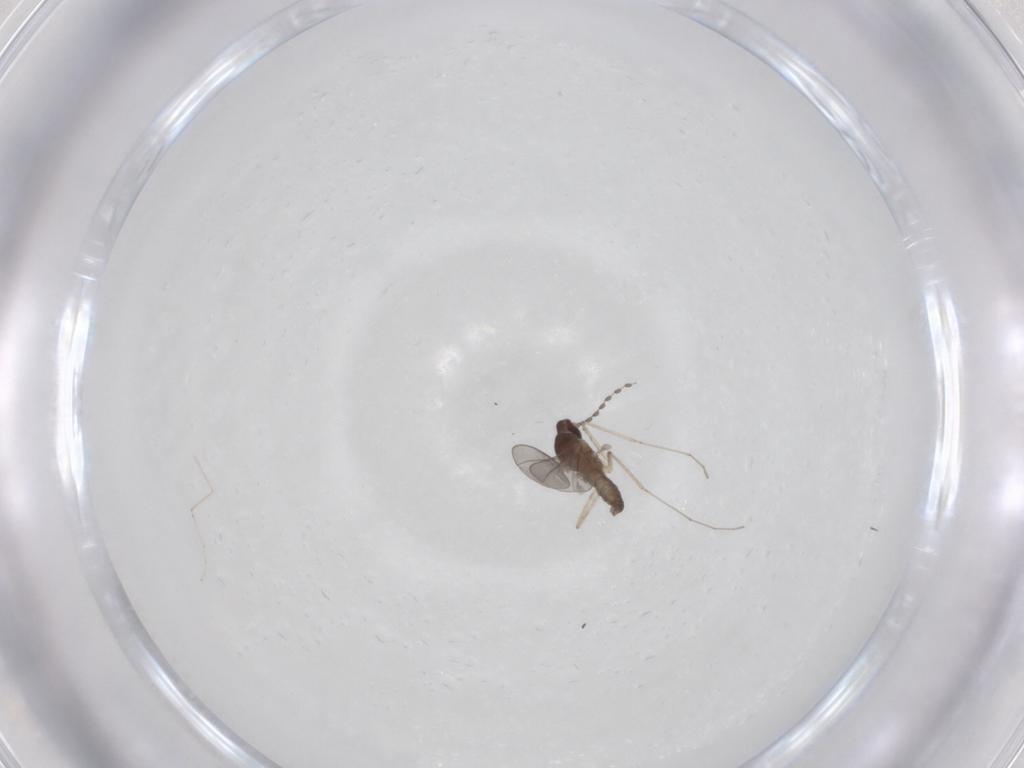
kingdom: Animalia
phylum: Arthropoda
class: Insecta
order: Diptera
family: Cecidomyiidae
